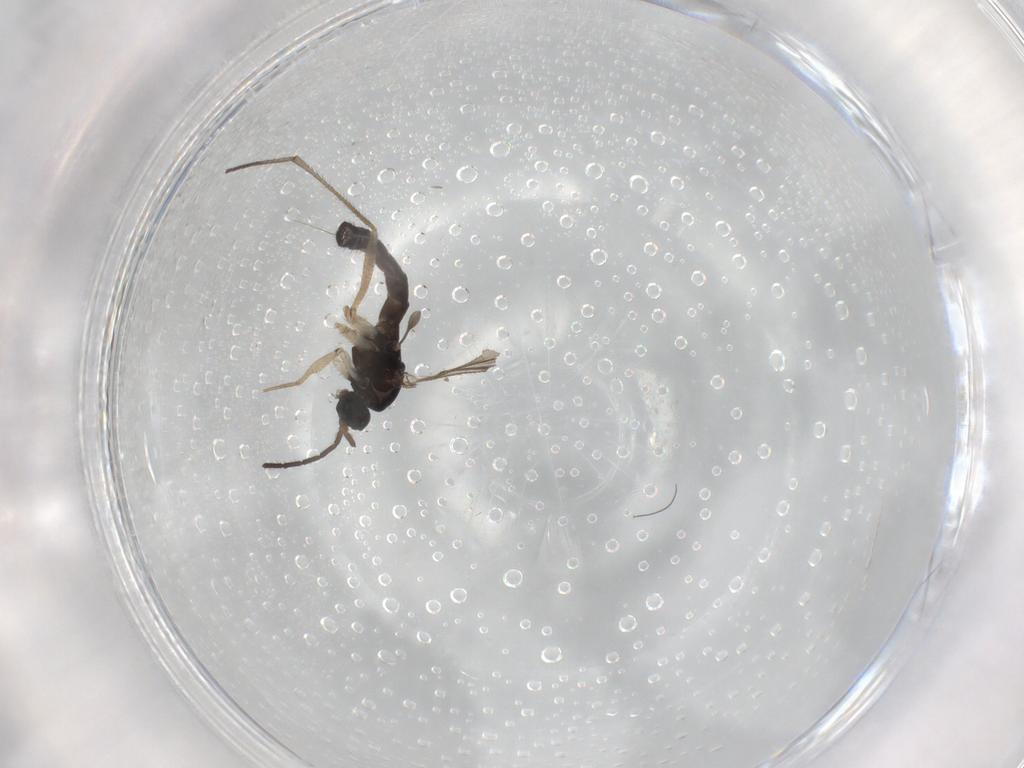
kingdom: Animalia
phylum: Arthropoda
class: Insecta
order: Diptera
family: Sciaridae
